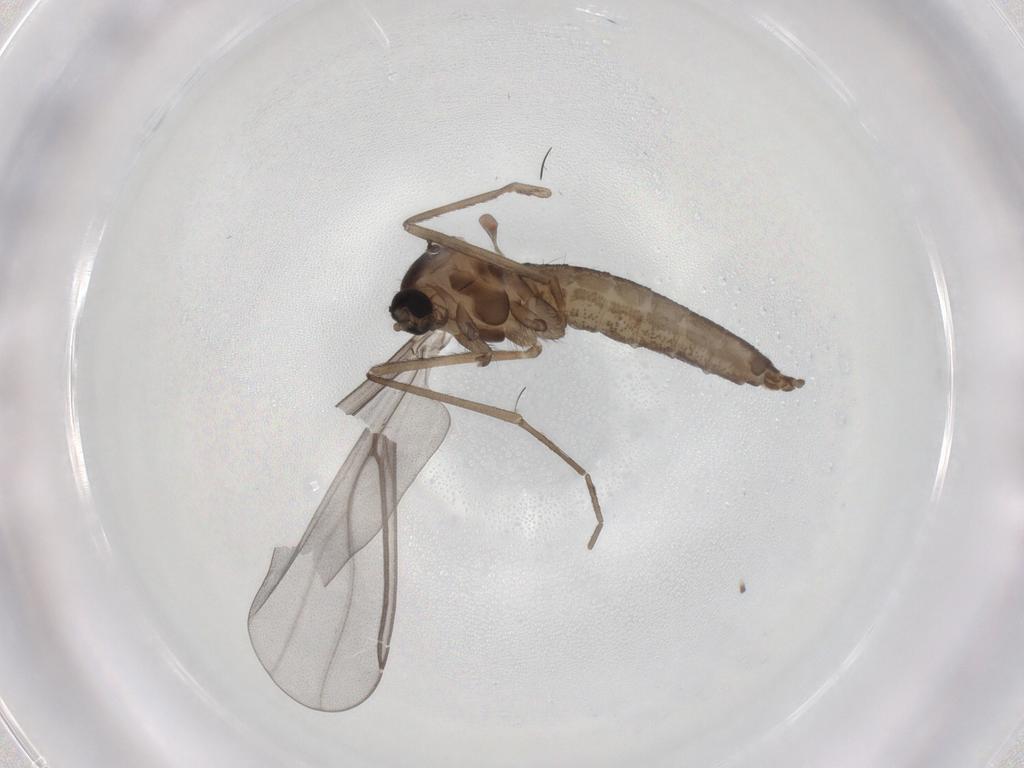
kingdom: Animalia
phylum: Arthropoda
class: Insecta
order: Diptera
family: Cecidomyiidae
